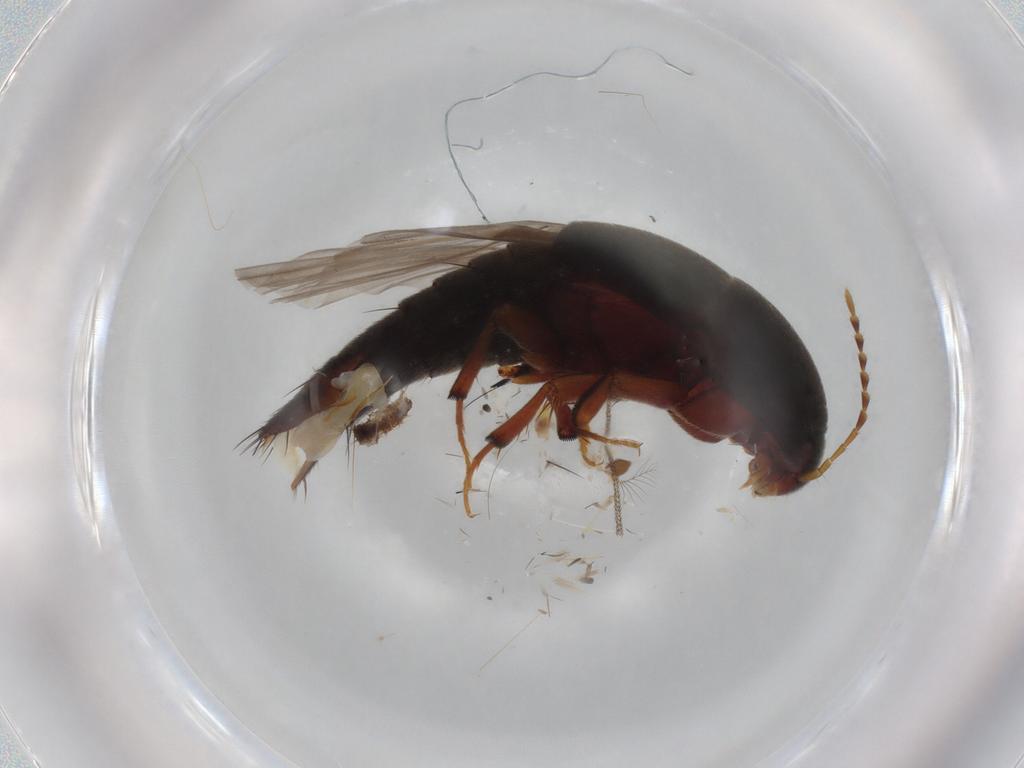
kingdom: Animalia
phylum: Arthropoda
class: Insecta
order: Coleoptera
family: Staphylinidae
